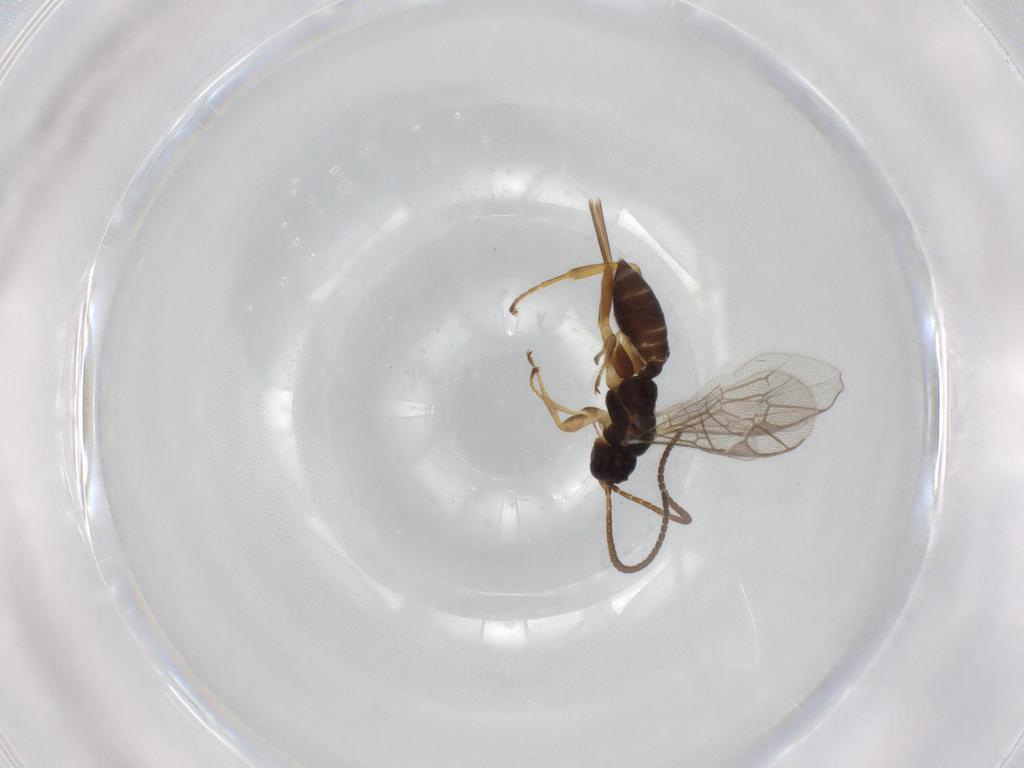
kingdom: Animalia
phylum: Arthropoda
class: Insecta
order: Hymenoptera
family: Ichneumonidae
